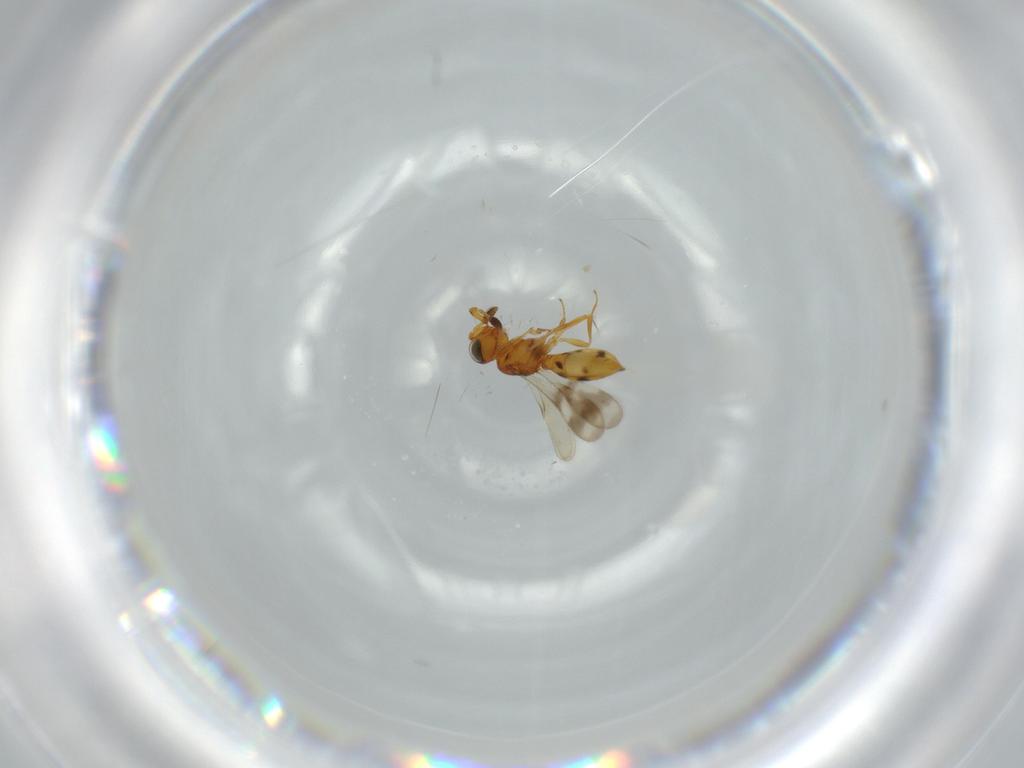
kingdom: Animalia
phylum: Arthropoda
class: Insecta
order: Hymenoptera
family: Scelionidae
